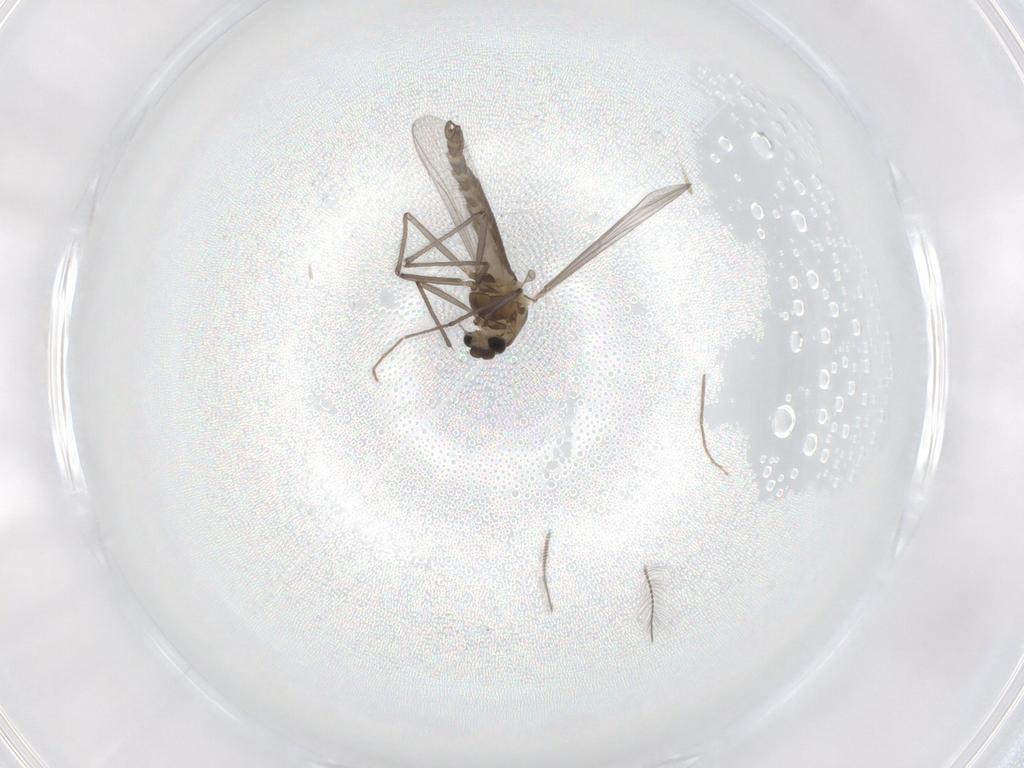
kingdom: Animalia
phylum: Arthropoda
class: Insecta
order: Diptera
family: Chironomidae
